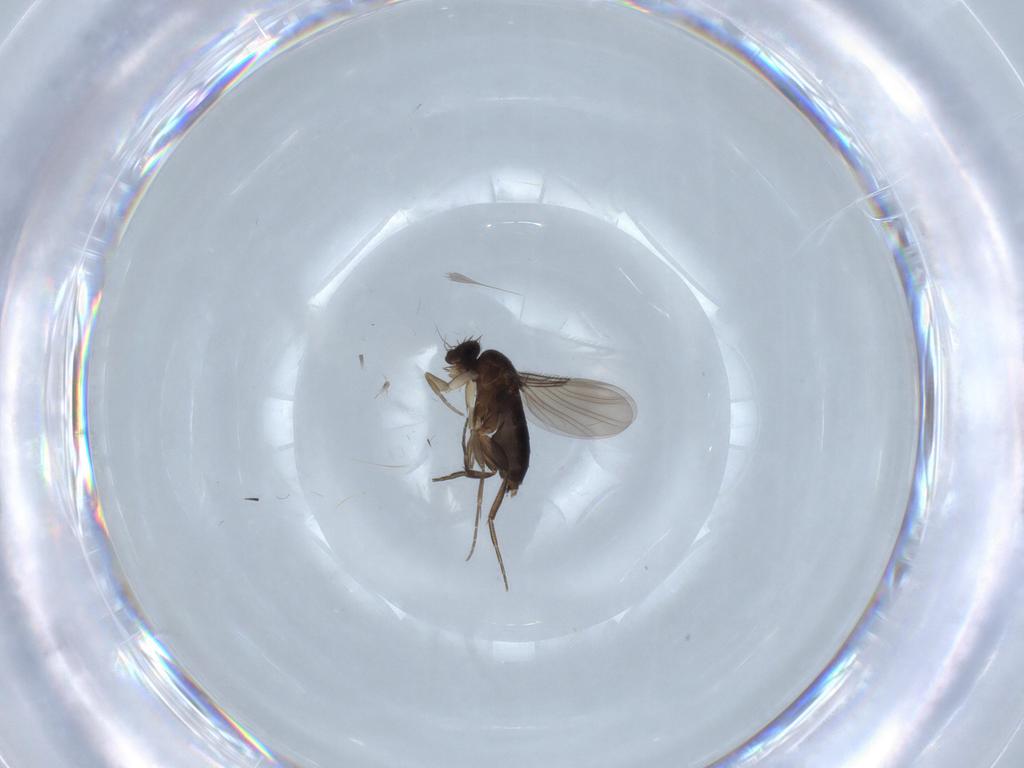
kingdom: Animalia
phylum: Arthropoda
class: Insecta
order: Diptera
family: Phoridae
